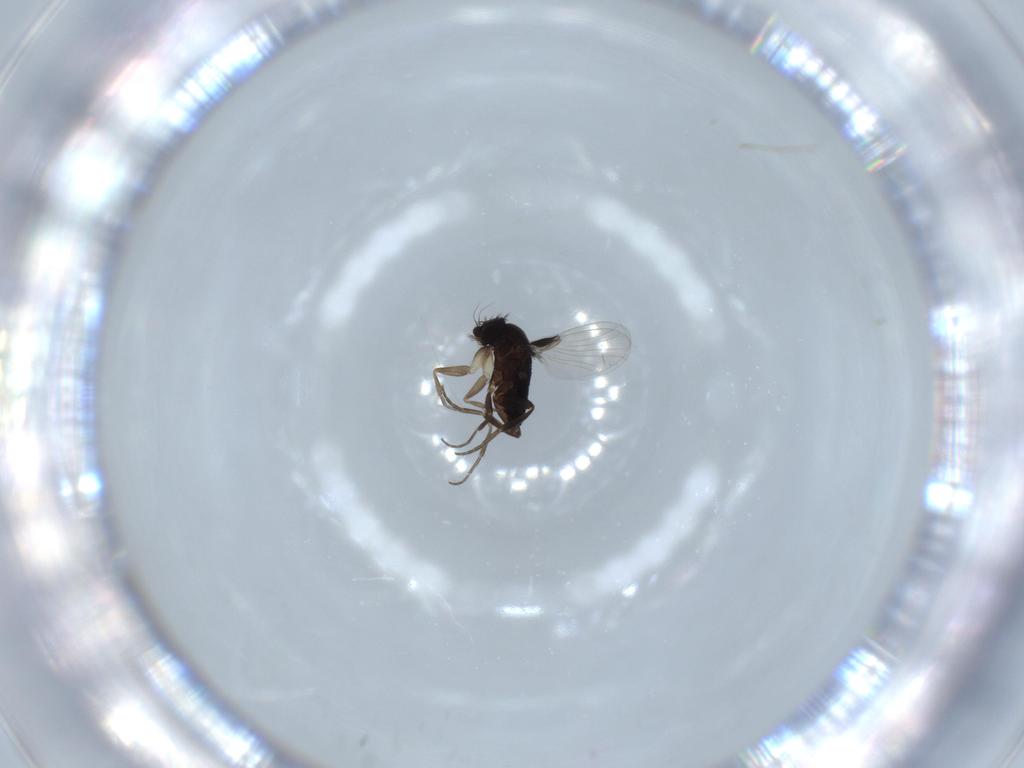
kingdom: Animalia
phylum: Arthropoda
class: Insecta
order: Diptera
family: Phoridae
